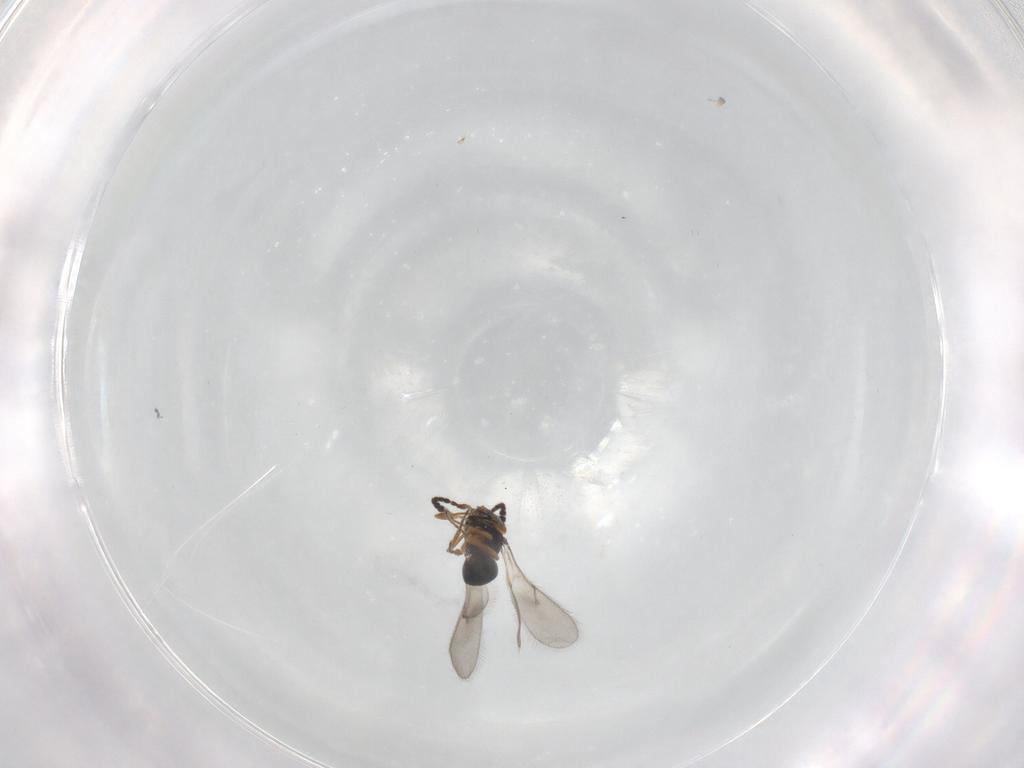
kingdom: Animalia
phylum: Arthropoda
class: Insecta
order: Hymenoptera
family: Scelionidae
